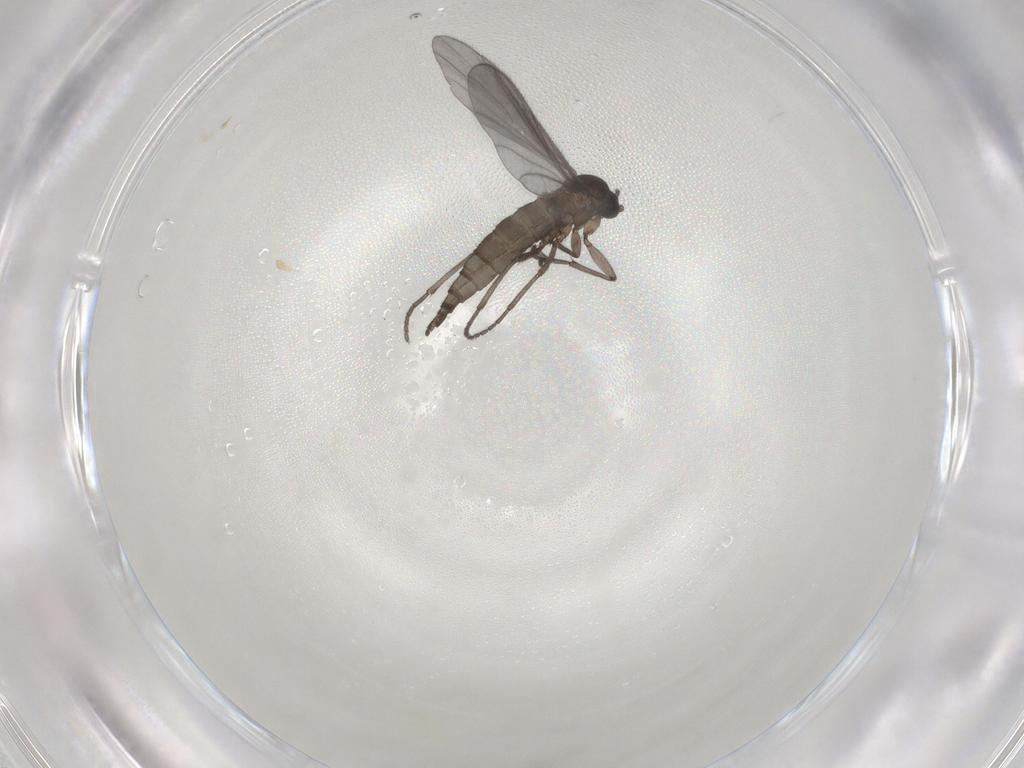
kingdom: Animalia
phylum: Arthropoda
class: Insecta
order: Diptera
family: Sciaridae
